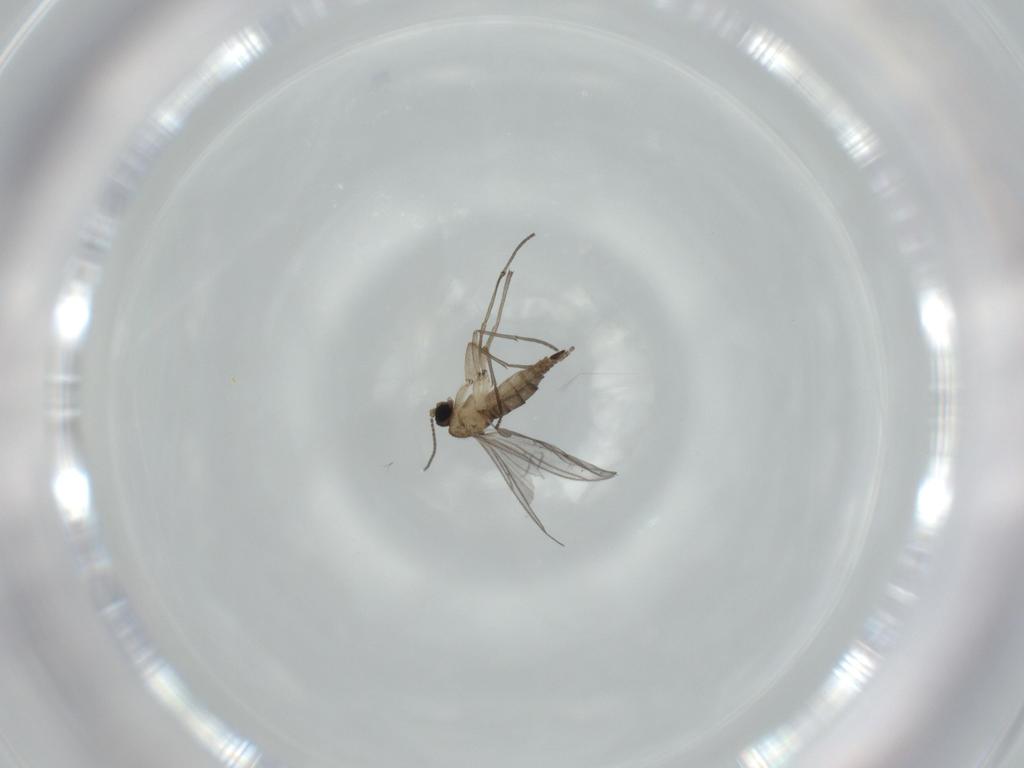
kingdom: Animalia
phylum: Arthropoda
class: Insecta
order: Diptera
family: Sciaridae
